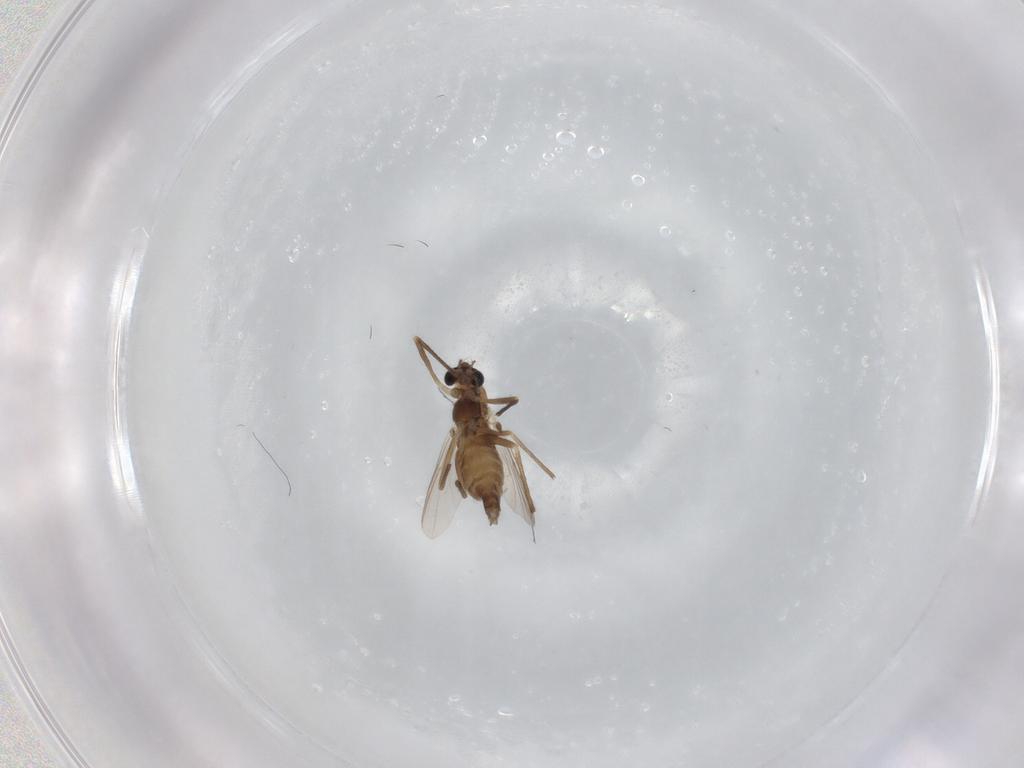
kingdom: Animalia
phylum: Arthropoda
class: Insecta
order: Diptera
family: Chironomidae
